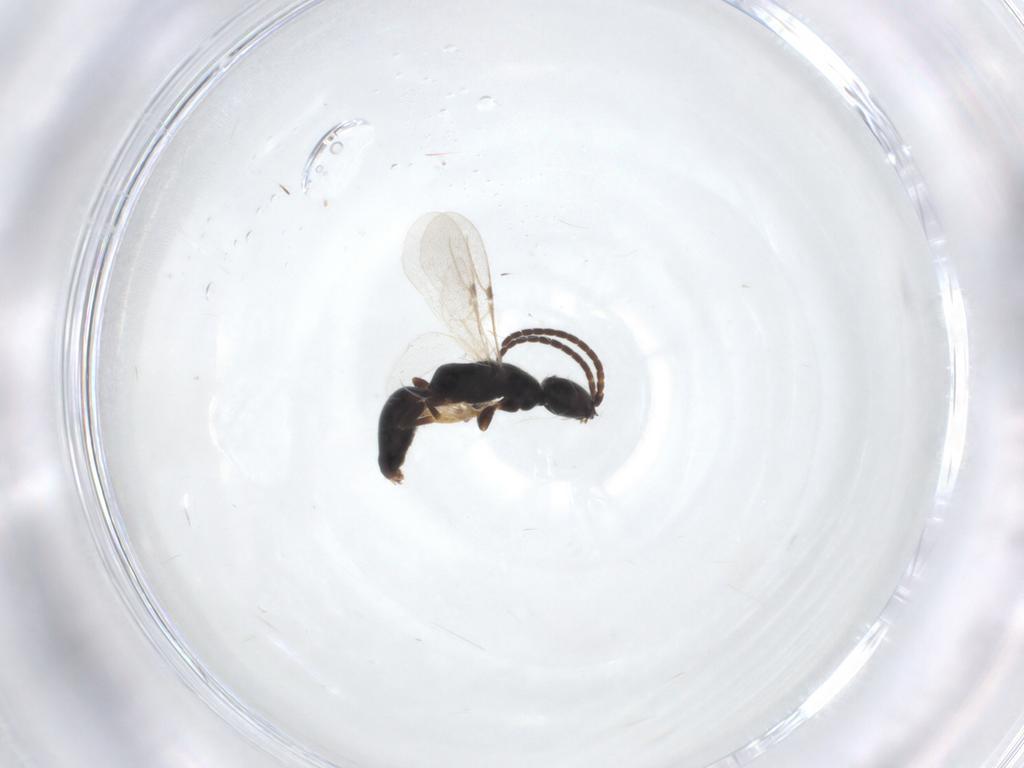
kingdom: Animalia
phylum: Arthropoda
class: Insecta
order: Hymenoptera
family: Bethylidae
